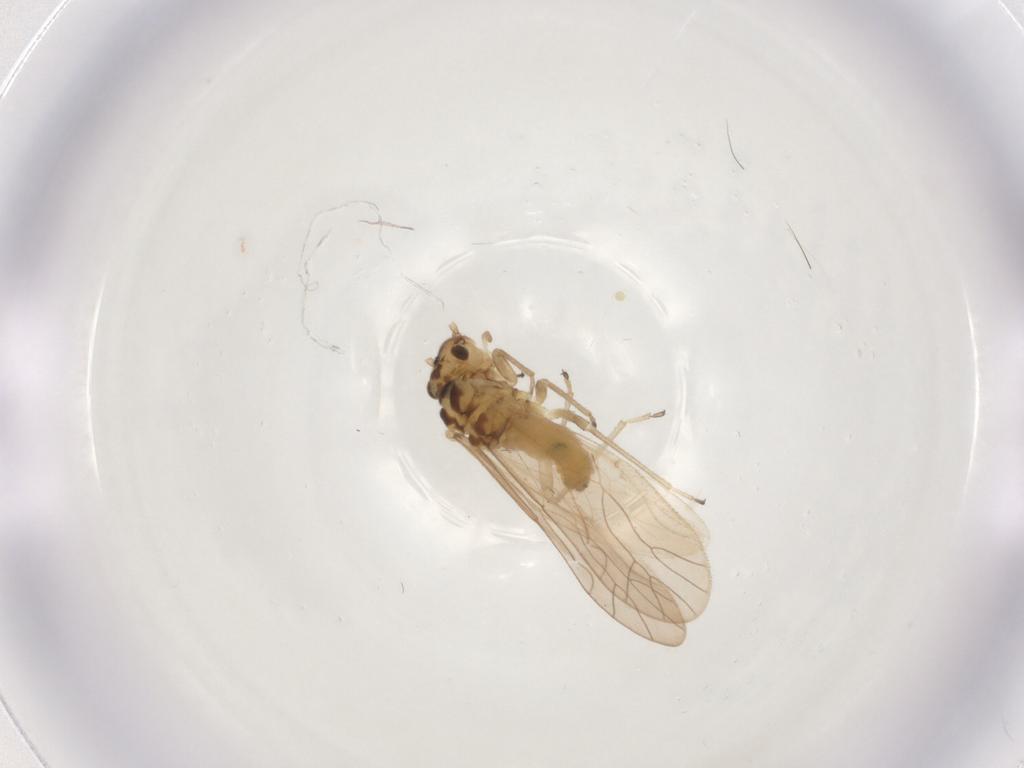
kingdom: Animalia
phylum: Arthropoda
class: Insecta
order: Psocodea
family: Caeciliusidae
